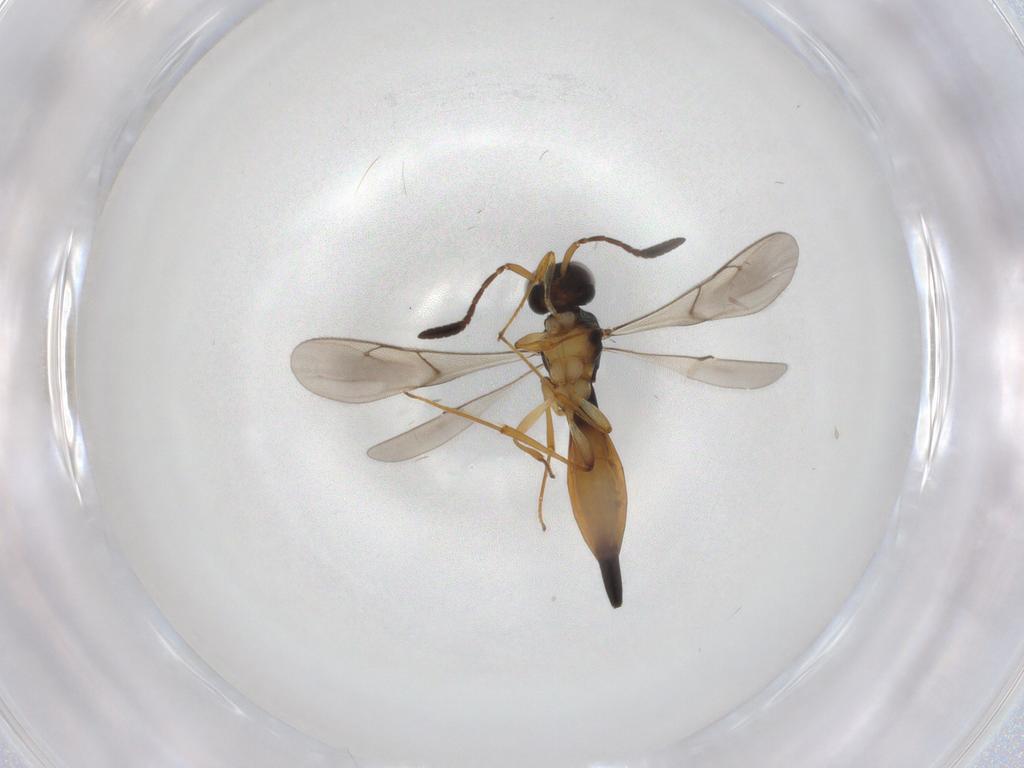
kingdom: Animalia
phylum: Arthropoda
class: Insecta
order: Hymenoptera
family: Scelionidae
